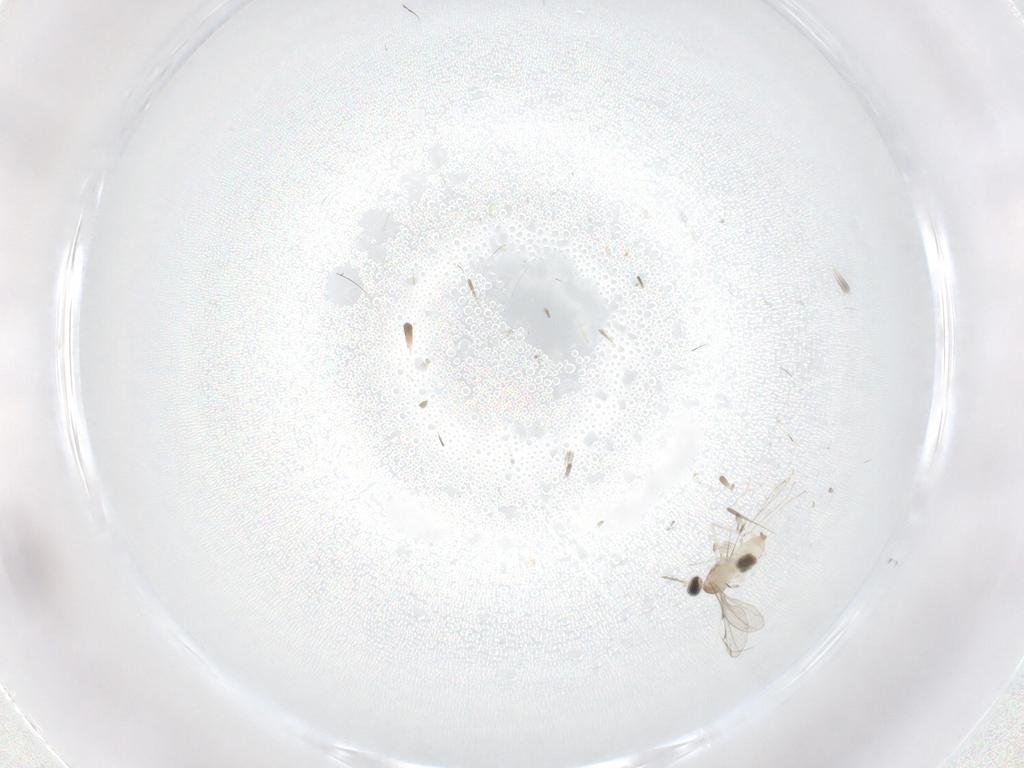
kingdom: Animalia
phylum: Arthropoda
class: Insecta
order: Diptera
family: Cecidomyiidae
